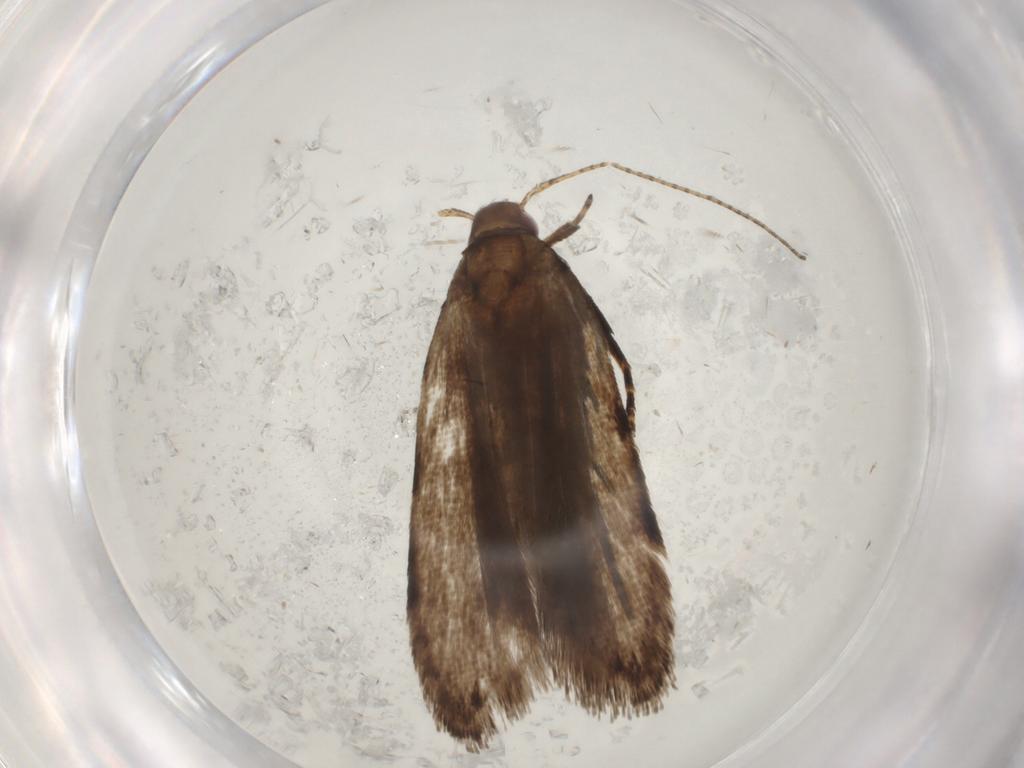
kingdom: Animalia
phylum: Arthropoda
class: Insecta
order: Lepidoptera
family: Gelechiidae
